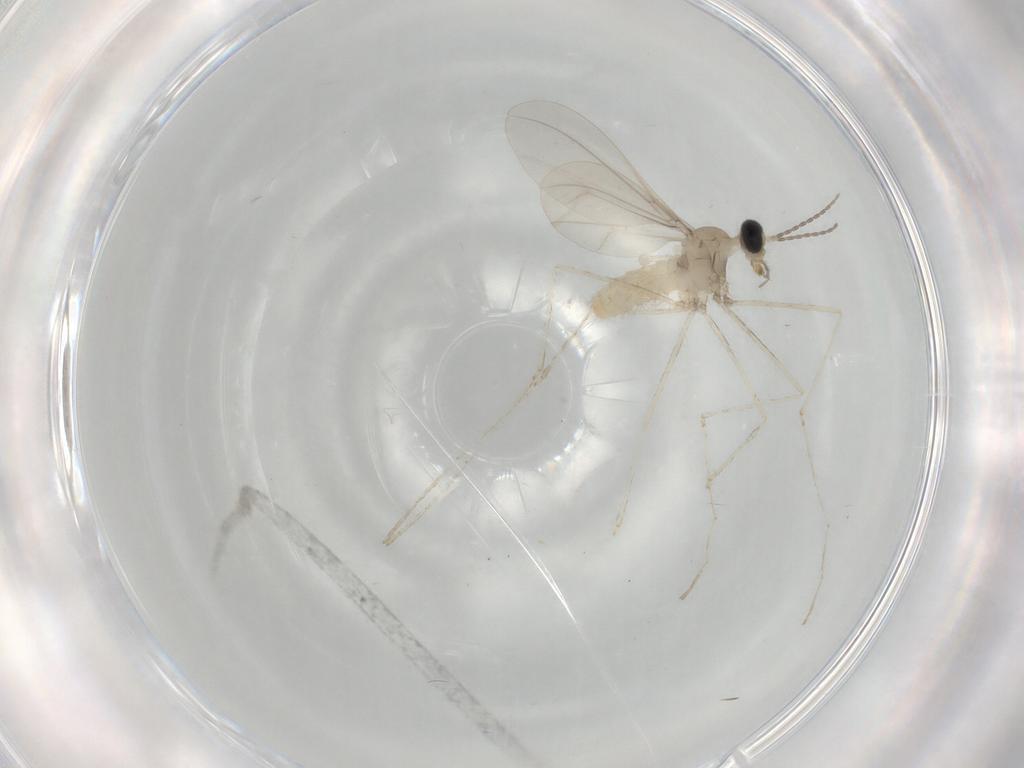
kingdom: Animalia
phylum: Arthropoda
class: Insecta
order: Diptera
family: Cecidomyiidae
